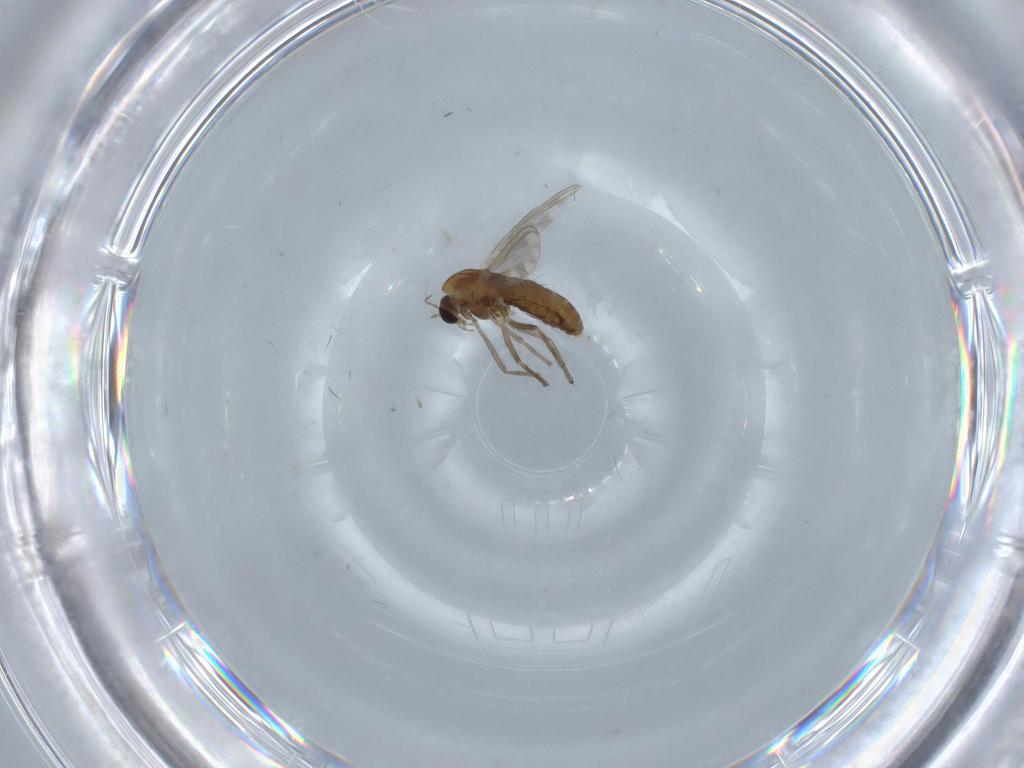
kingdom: Animalia
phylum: Arthropoda
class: Insecta
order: Diptera
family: Chironomidae
